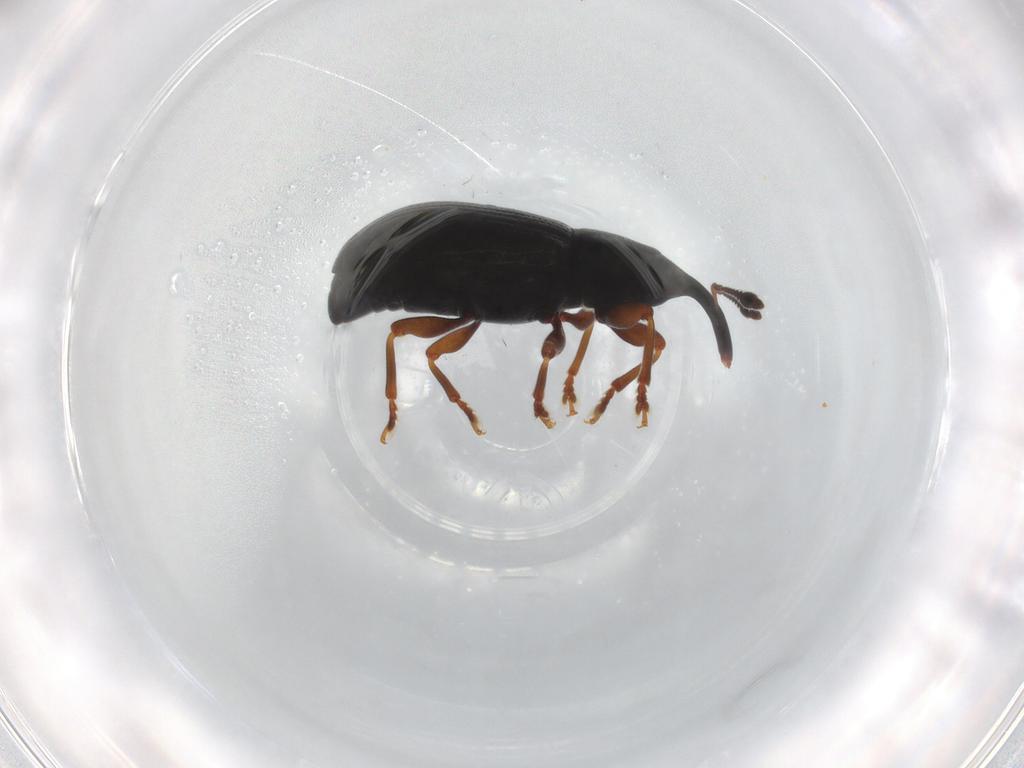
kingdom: Animalia
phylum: Arthropoda
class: Insecta
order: Coleoptera
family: Curculionidae
